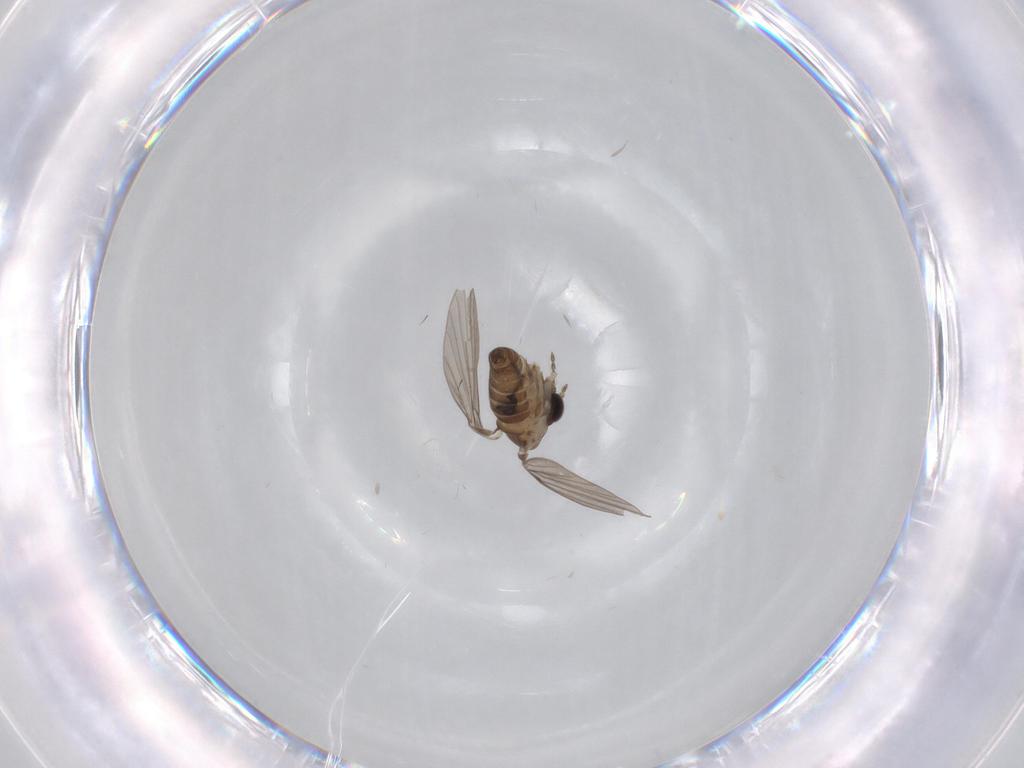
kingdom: Animalia
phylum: Arthropoda
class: Insecta
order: Diptera
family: Sciaridae
